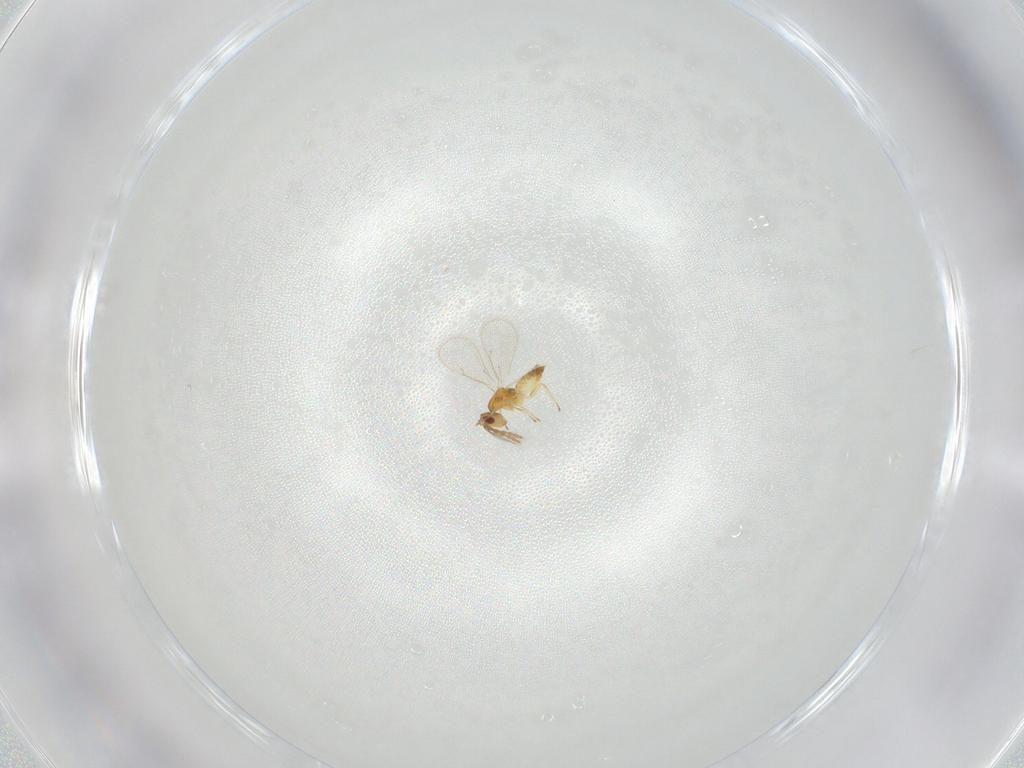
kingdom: Animalia
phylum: Arthropoda
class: Insecta
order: Hymenoptera
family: Eulophidae
